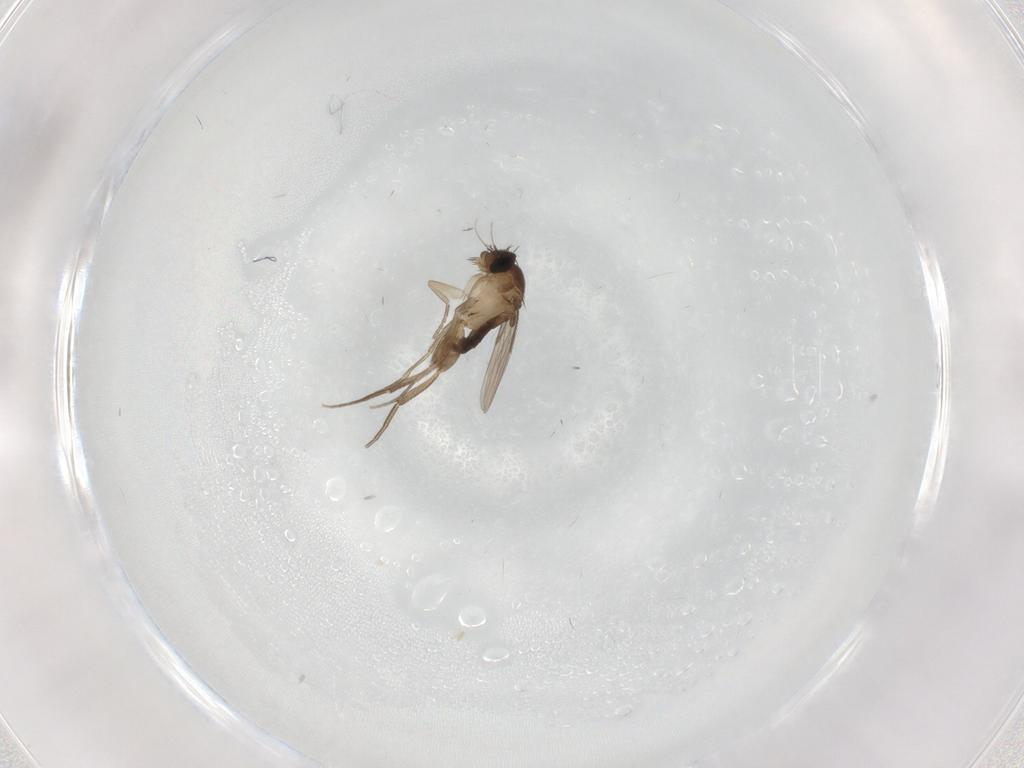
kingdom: Animalia
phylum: Arthropoda
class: Insecta
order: Diptera
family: Phoridae
